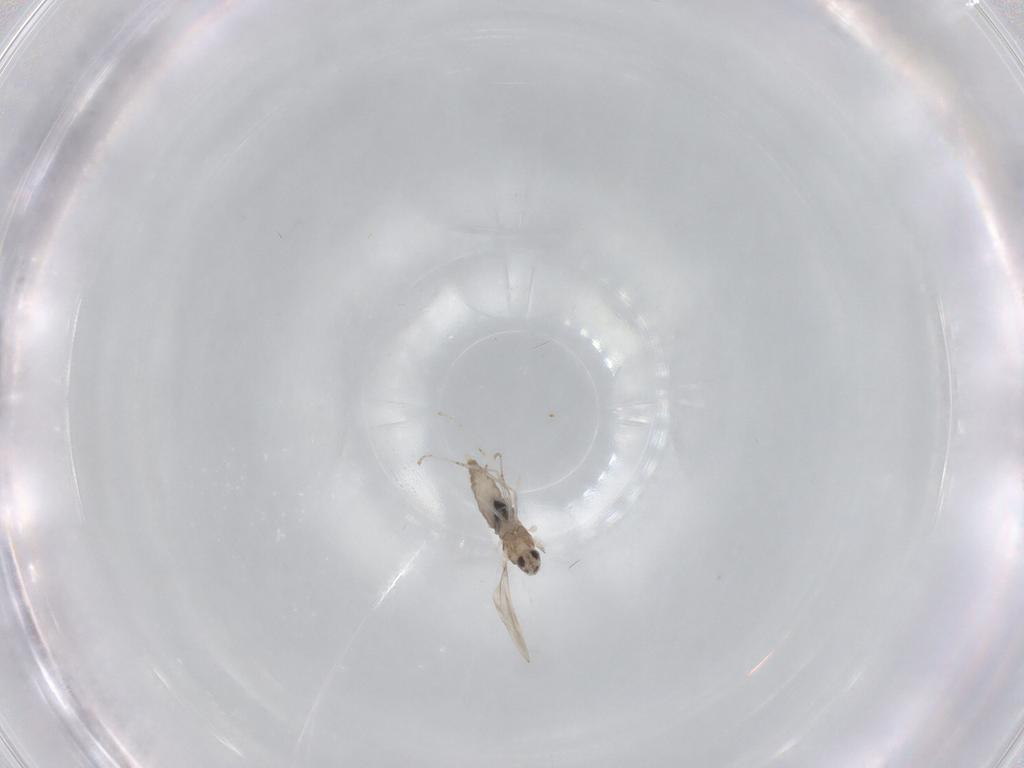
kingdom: Animalia
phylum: Arthropoda
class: Insecta
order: Diptera
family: Cecidomyiidae
